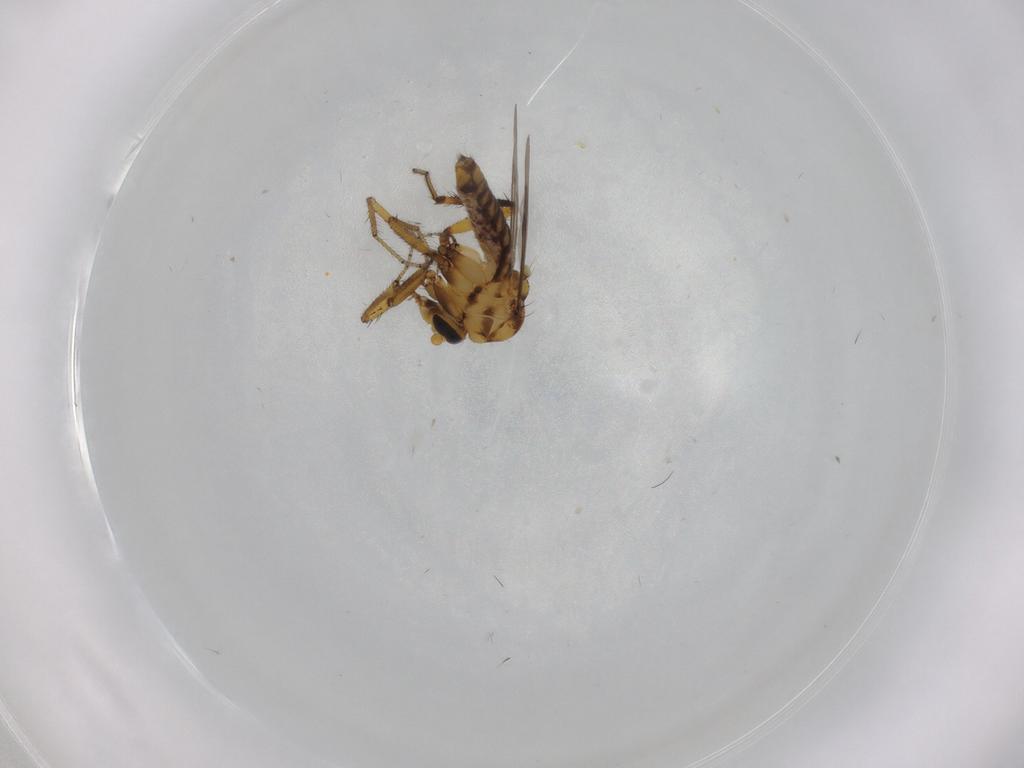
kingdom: Animalia
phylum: Arthropoda
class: Insecta
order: Diptera
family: Ceratopogonidae
